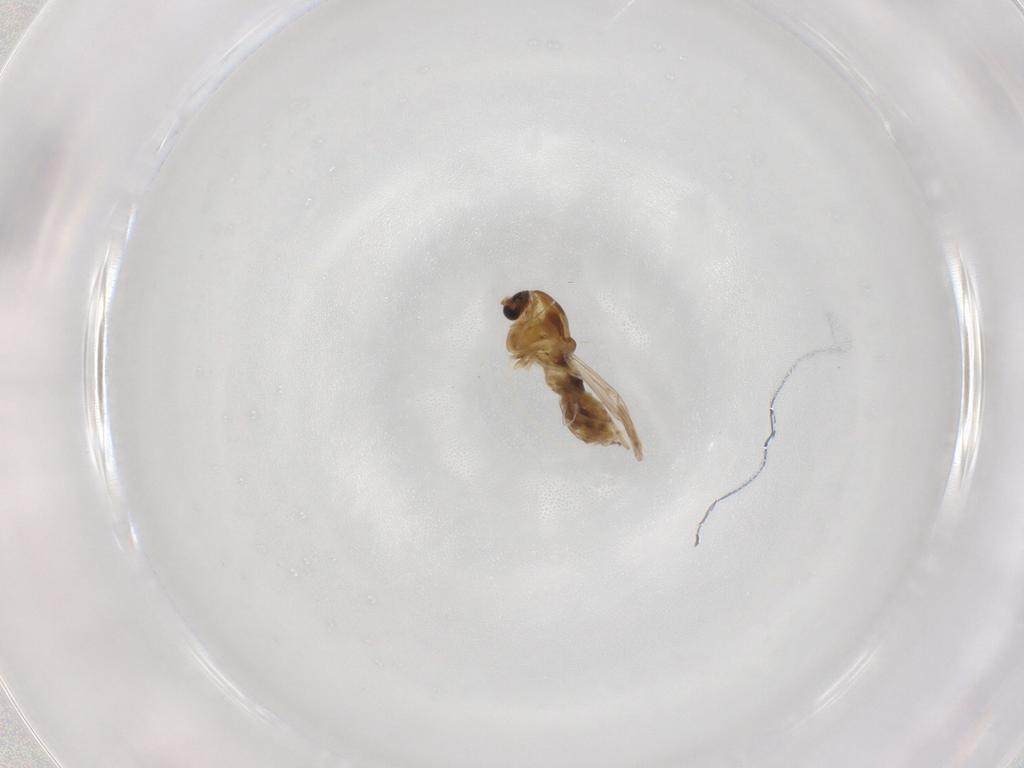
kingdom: Animalia
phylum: Arthropoda
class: Insecta
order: Diptera
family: Chironomidae
